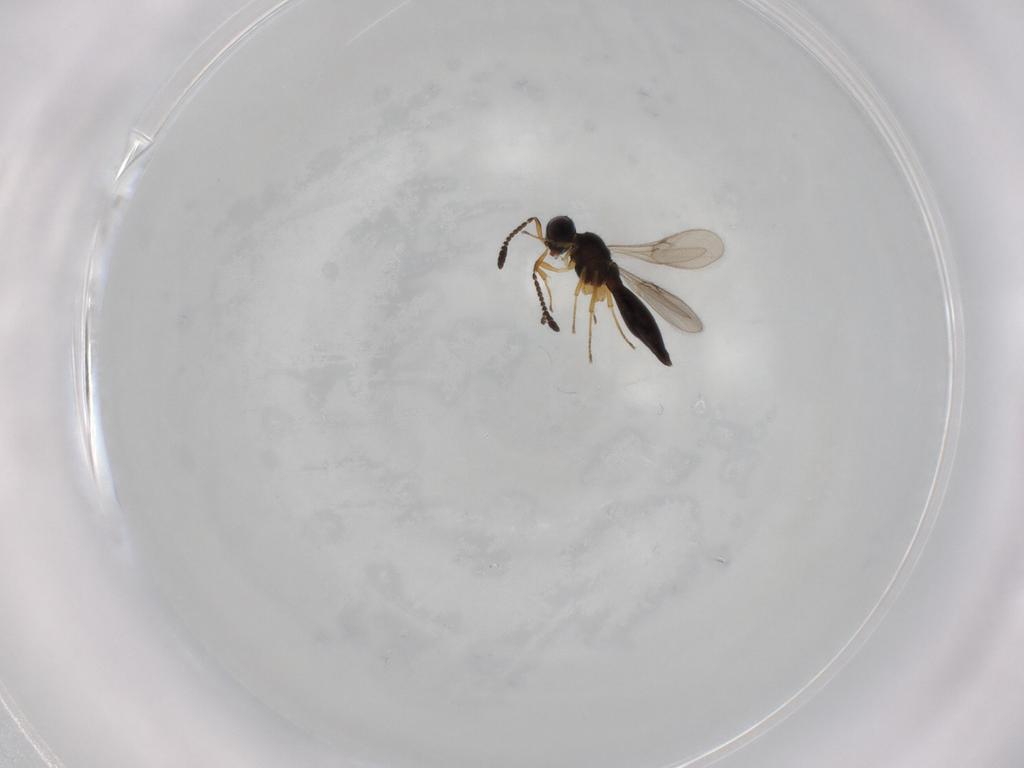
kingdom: Animalia
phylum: Arthropoda
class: Insecta
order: Hymenoptera
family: Scelionidae
